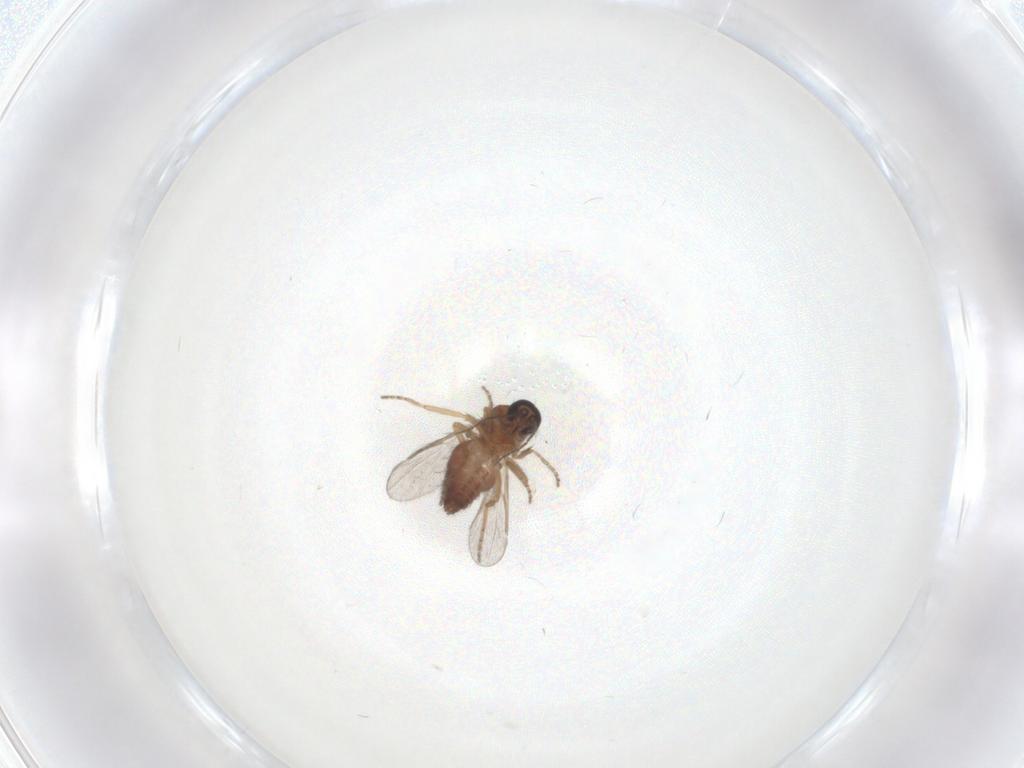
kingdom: Animalia
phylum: Arthropoda
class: Insecta
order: Diptera
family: Ceratopogonidae
